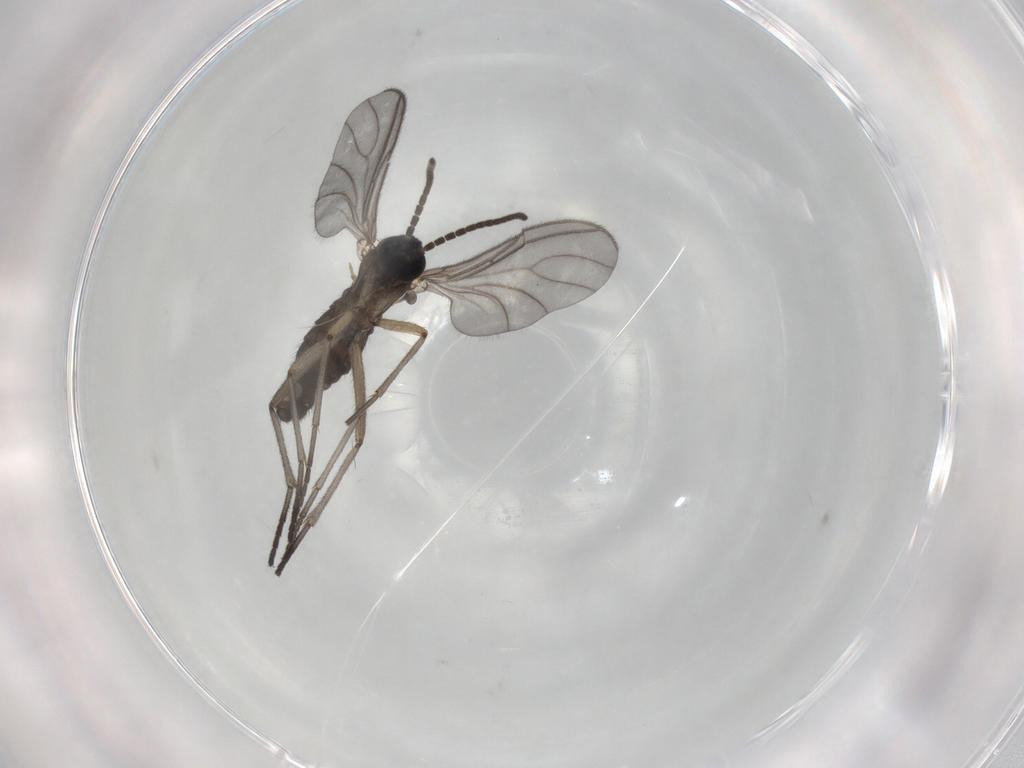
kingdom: Animalia
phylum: Arthropoda
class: Insecta
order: Diptera
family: Sciaridae
